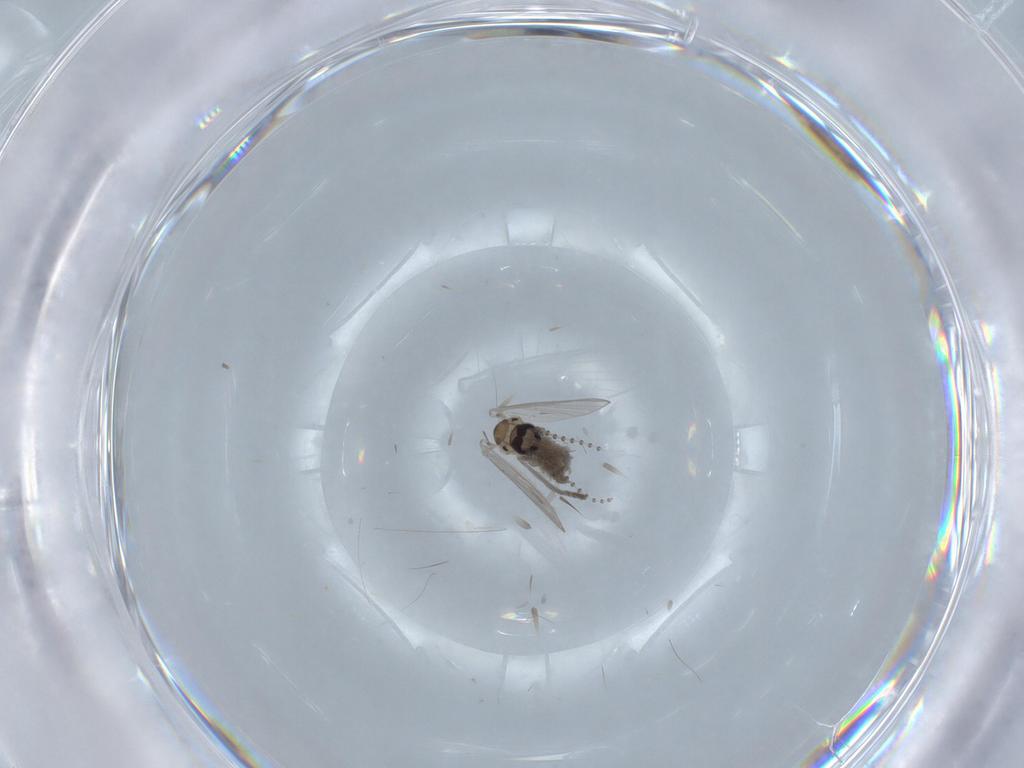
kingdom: Animalia
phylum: Arthropoda
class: Insecta
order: Diptera
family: Psychodidae
